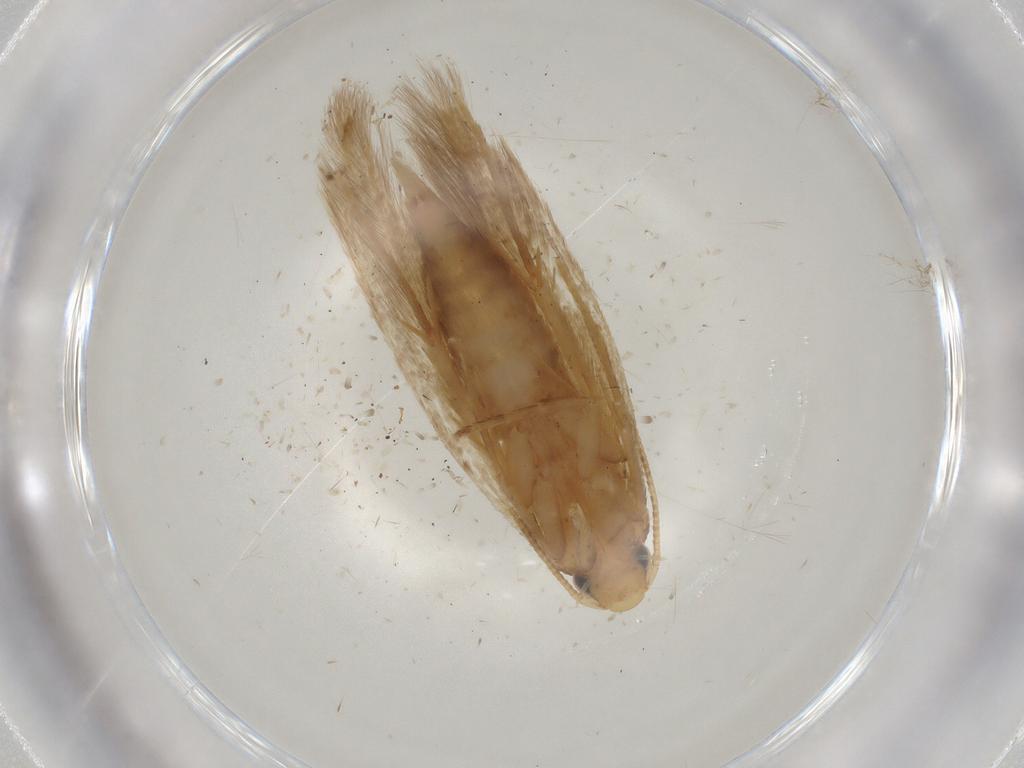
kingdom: Animalia
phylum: Arthropoda
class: Insecta
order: Lepidoptera
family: Tineidae
